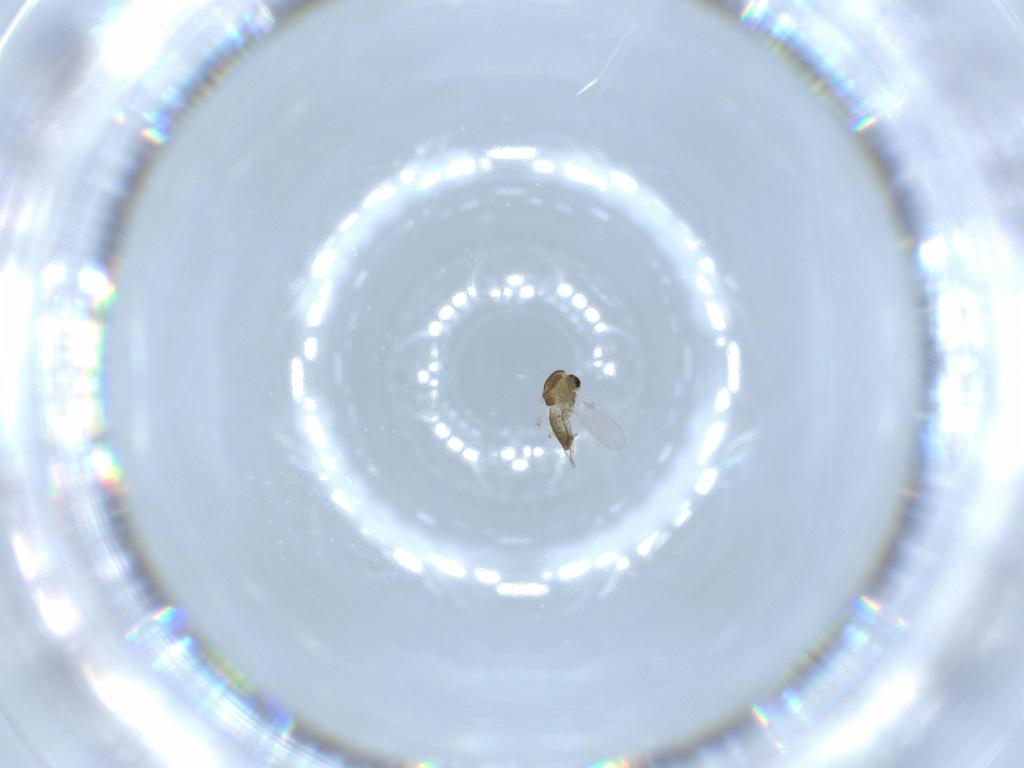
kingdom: Animalia
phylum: Arthropoda
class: Insecta
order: Diptera
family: Chironomidae
